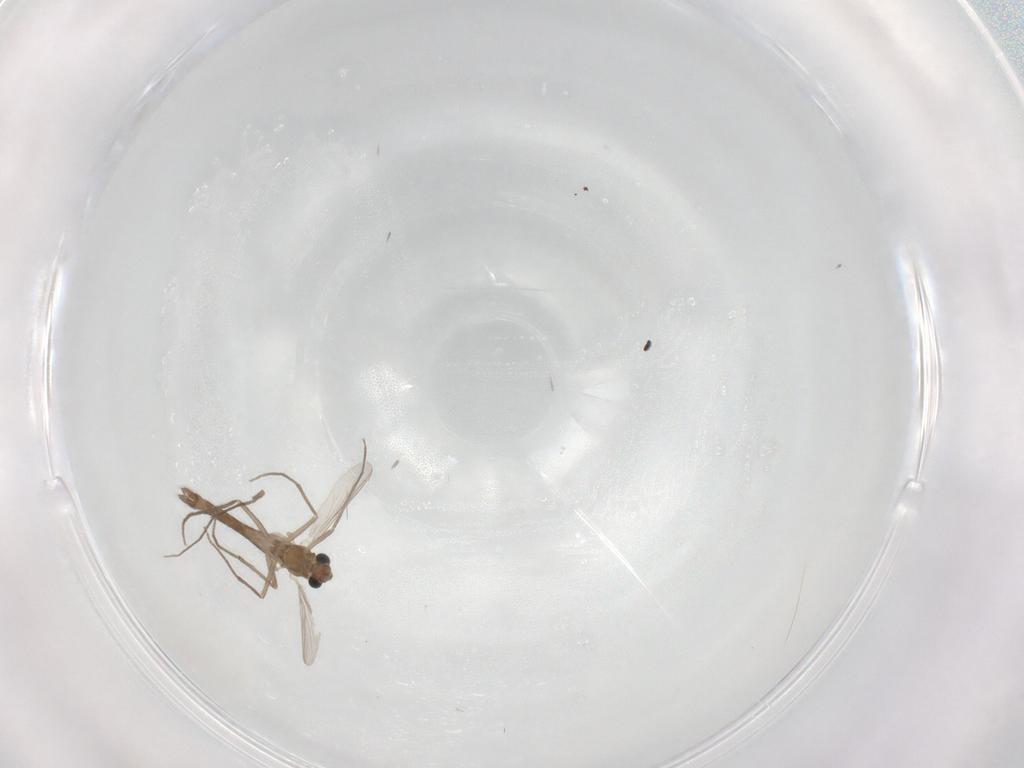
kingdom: Animalia
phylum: Arthropoda
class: Insecta
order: Diptera
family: Chironomidae
